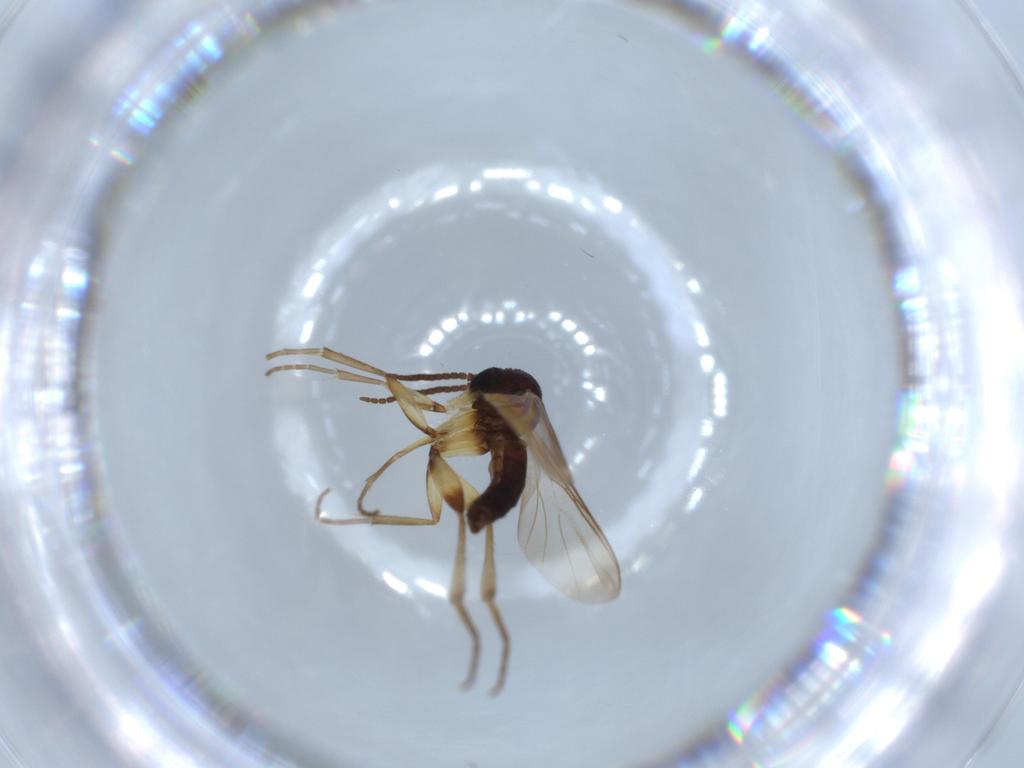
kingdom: Animalia
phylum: Arthropoda
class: Insecta
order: Diptera
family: Mycetophilidae
